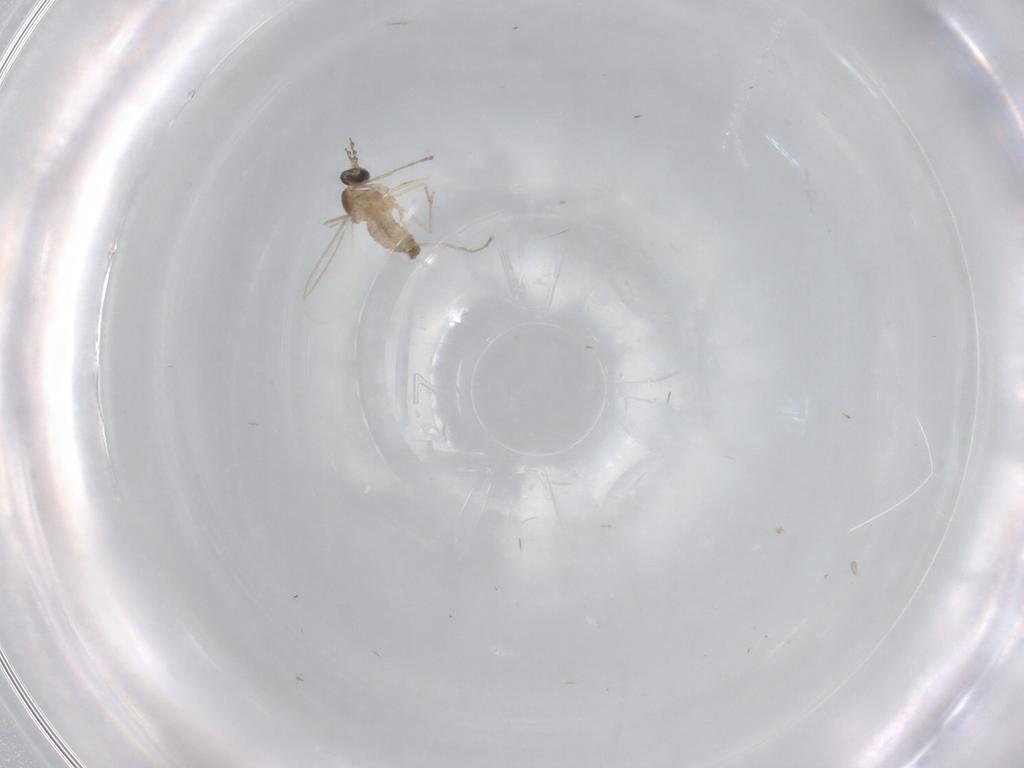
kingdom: Animalia
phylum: Arthropoda
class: Insecta
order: Diptera
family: Cecidomyiidae
